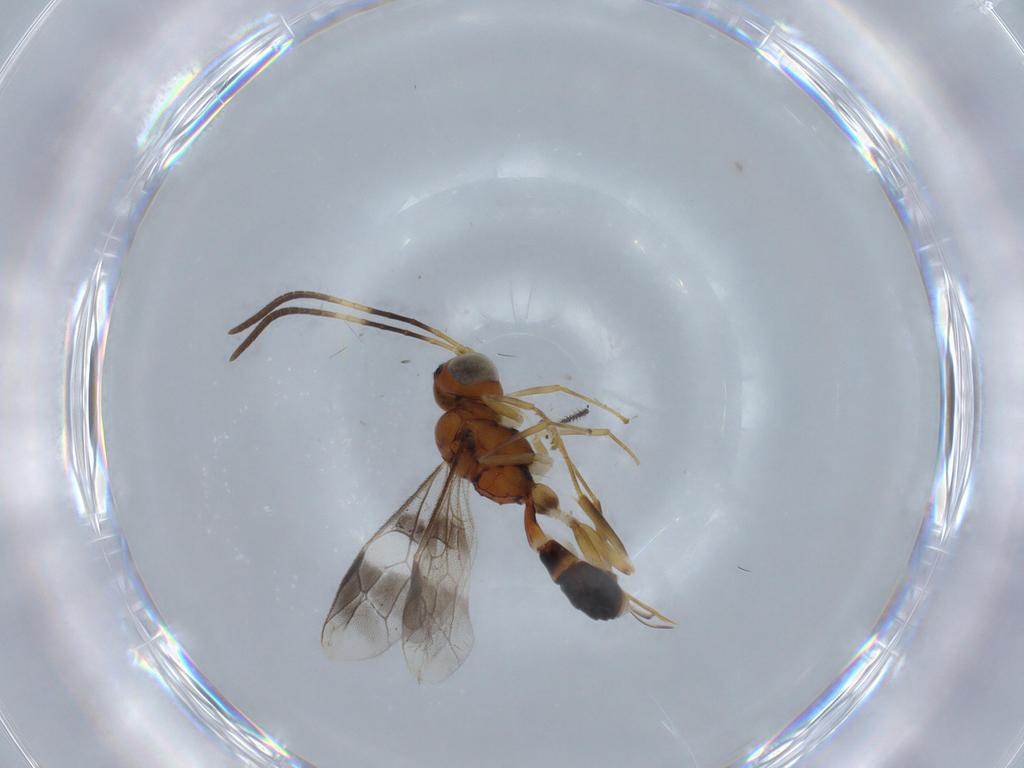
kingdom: Animalia
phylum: Arthropoda
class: Insecta
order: Hymenoptera
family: Ichneumonidae
